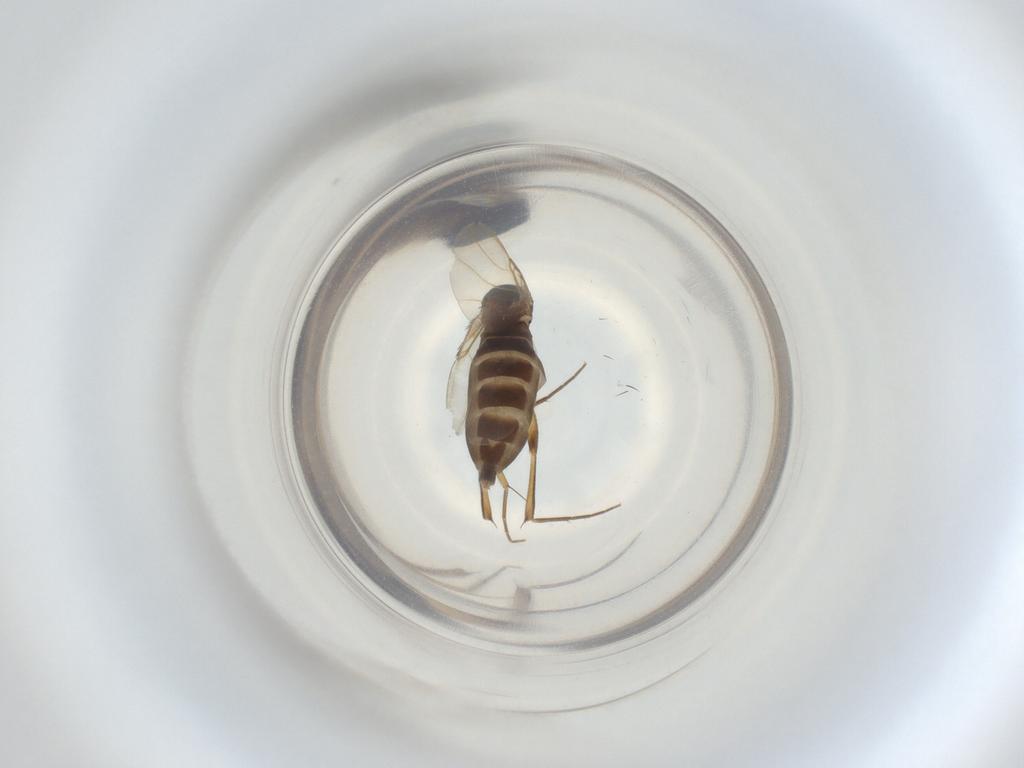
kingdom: Animalia
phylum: Arthropoda
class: Insecta
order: Diptera
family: Phoridae
